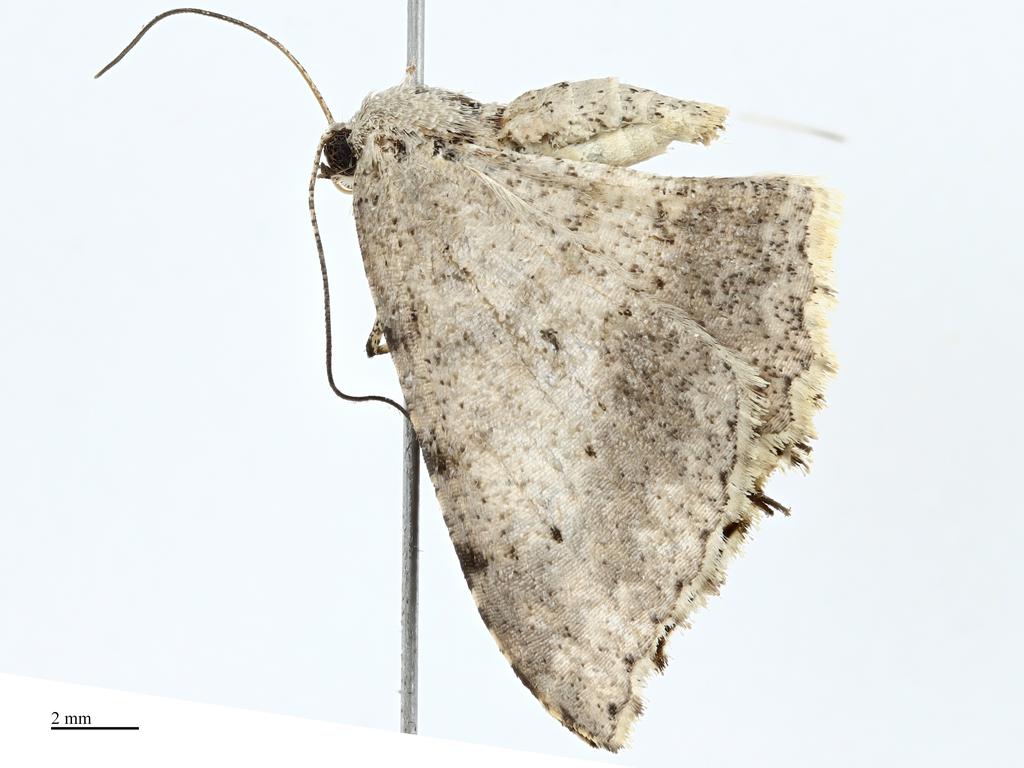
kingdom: Animalia
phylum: Arthropoda
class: Insecta
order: Lepidoptera
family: Geometridae
